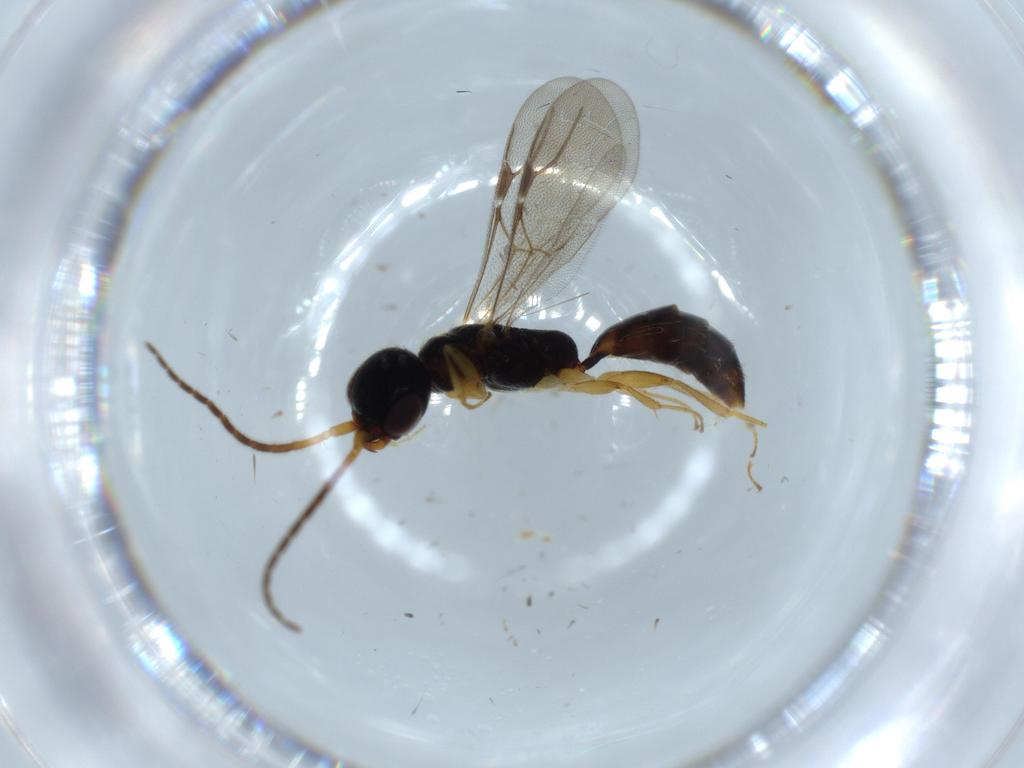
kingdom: Animalia
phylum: Arthropoda
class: Insecta
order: Hymenoptera
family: Bethylidae
